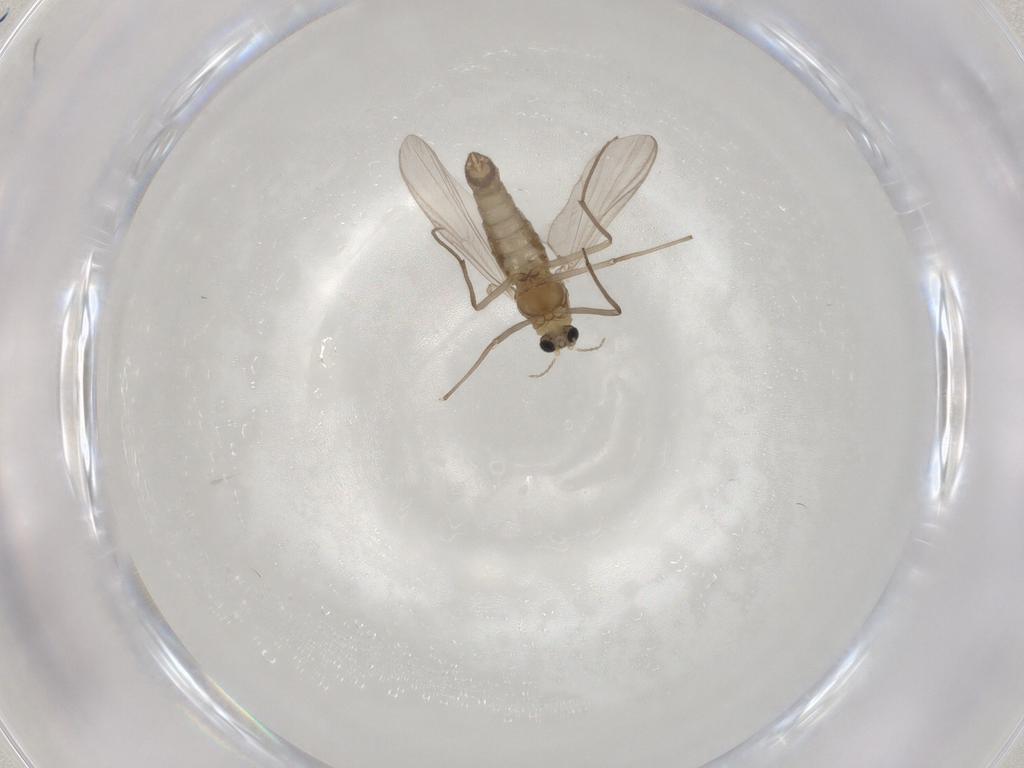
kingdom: Animalia
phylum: Arthropoda
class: Insecta
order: Diptera
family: Chironomidae
